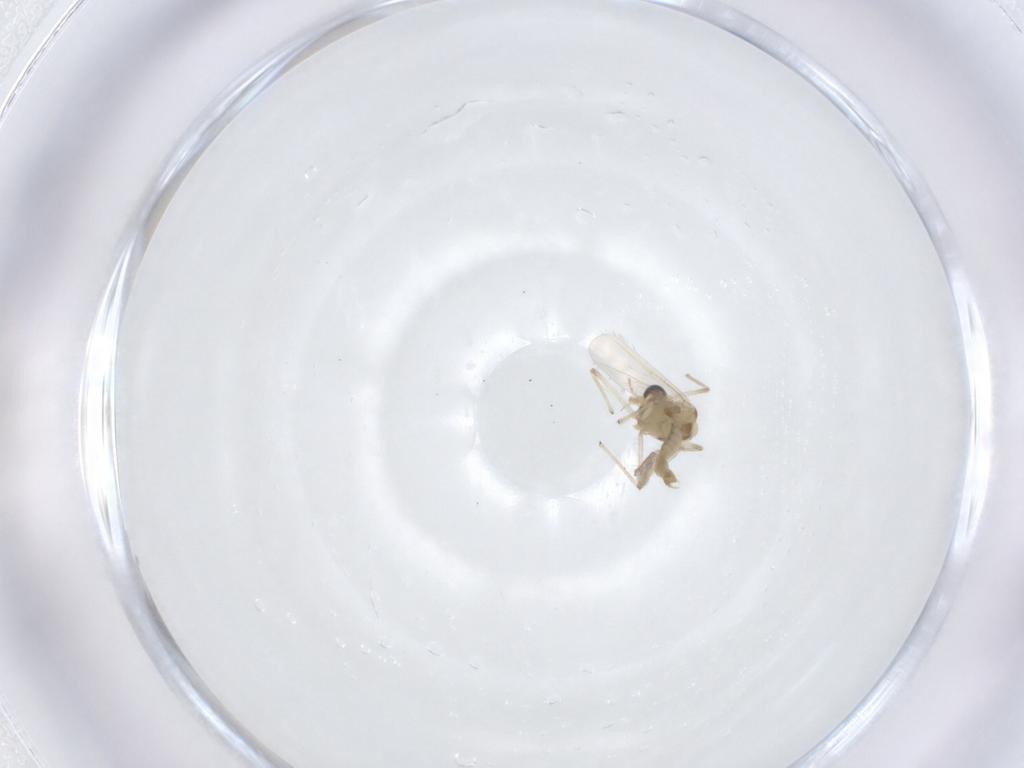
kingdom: Animalia
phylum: Arthropoda
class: Insecta
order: Diptera
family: Chironomidae
